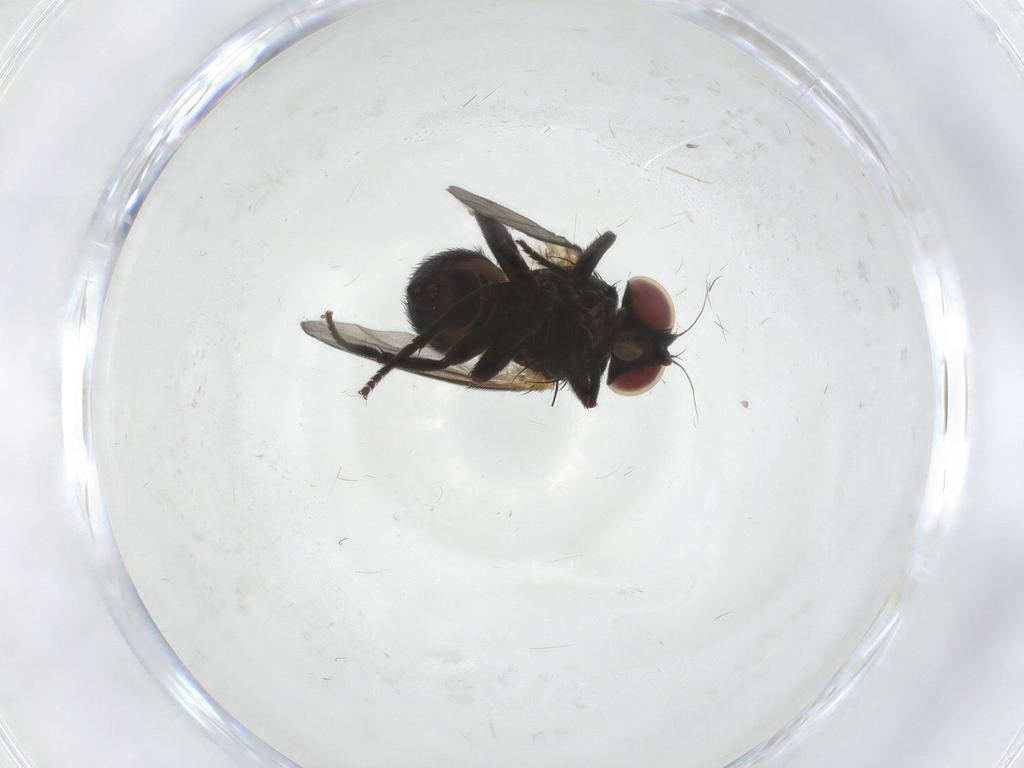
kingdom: Animalia
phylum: Arthropoda
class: Insecta
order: Diptera
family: Agromyzidae
